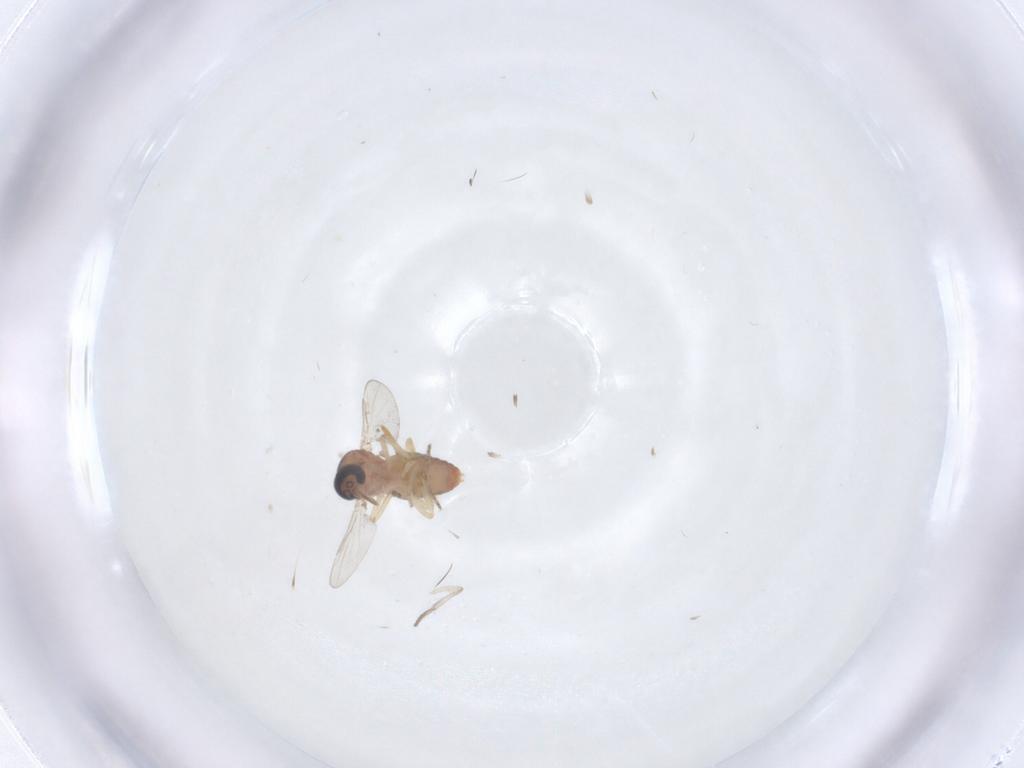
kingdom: Animalia
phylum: Arthropoda
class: Insecta
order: Diptera
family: Ceratopogonidae
